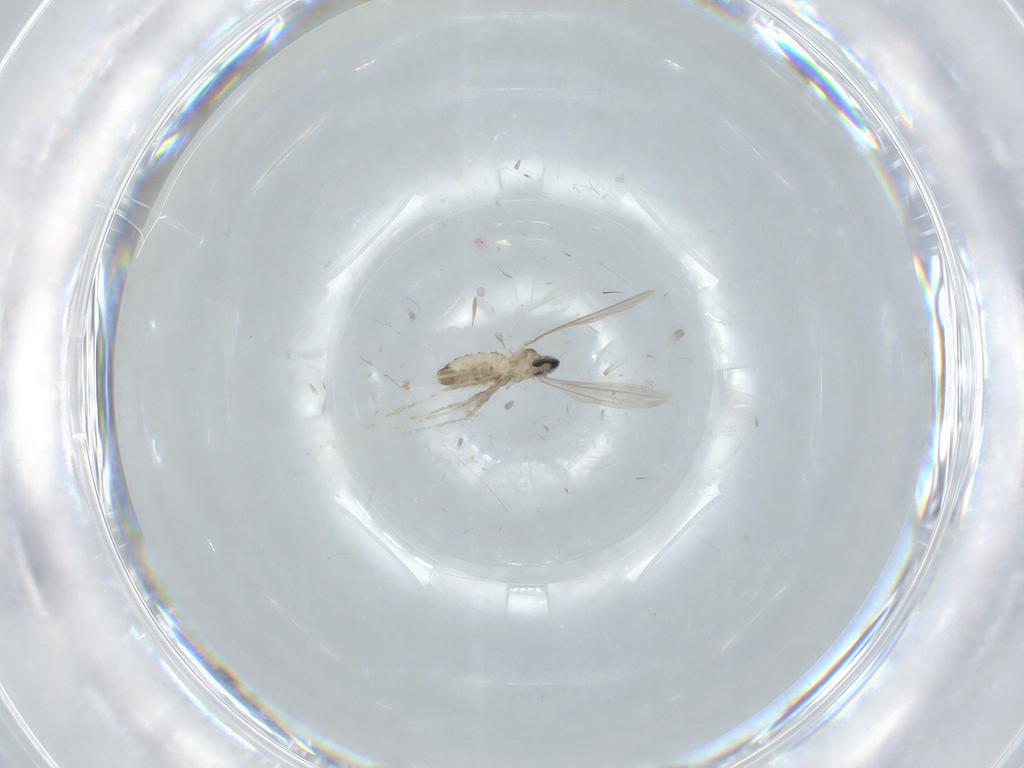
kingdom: Animalia
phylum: Arthropoda
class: Insecta
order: Diptera
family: Cecidomyiidae
